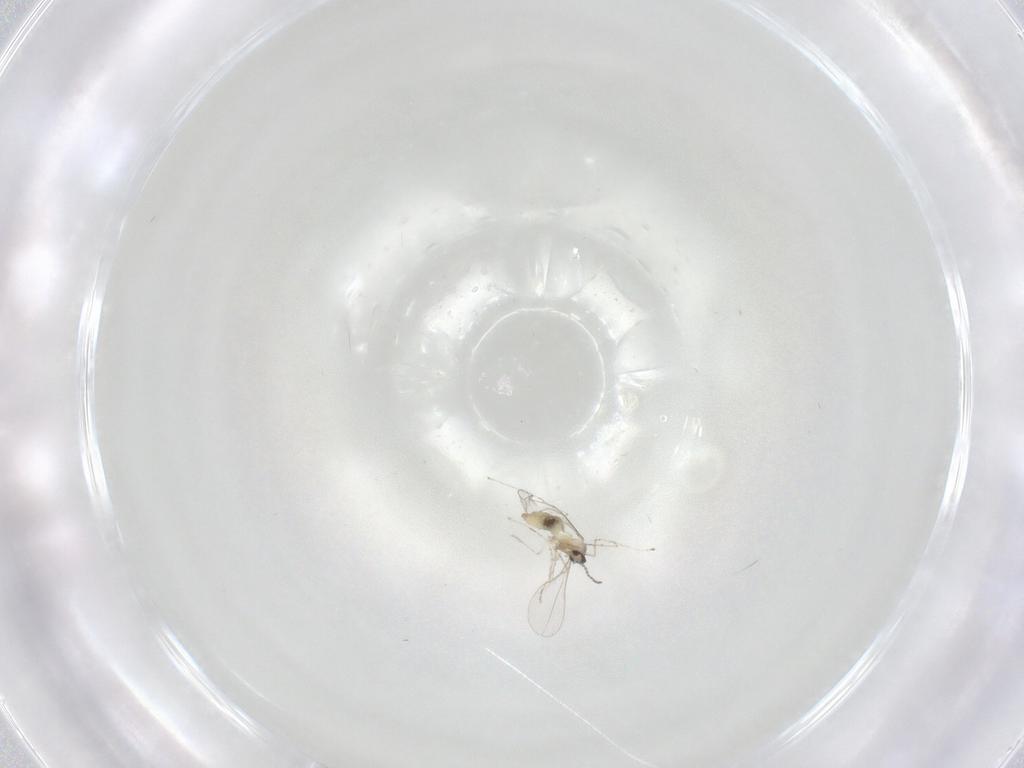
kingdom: Animalia
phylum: Arthropoda
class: Insecta
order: Diptera
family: Cecidomyiidae
